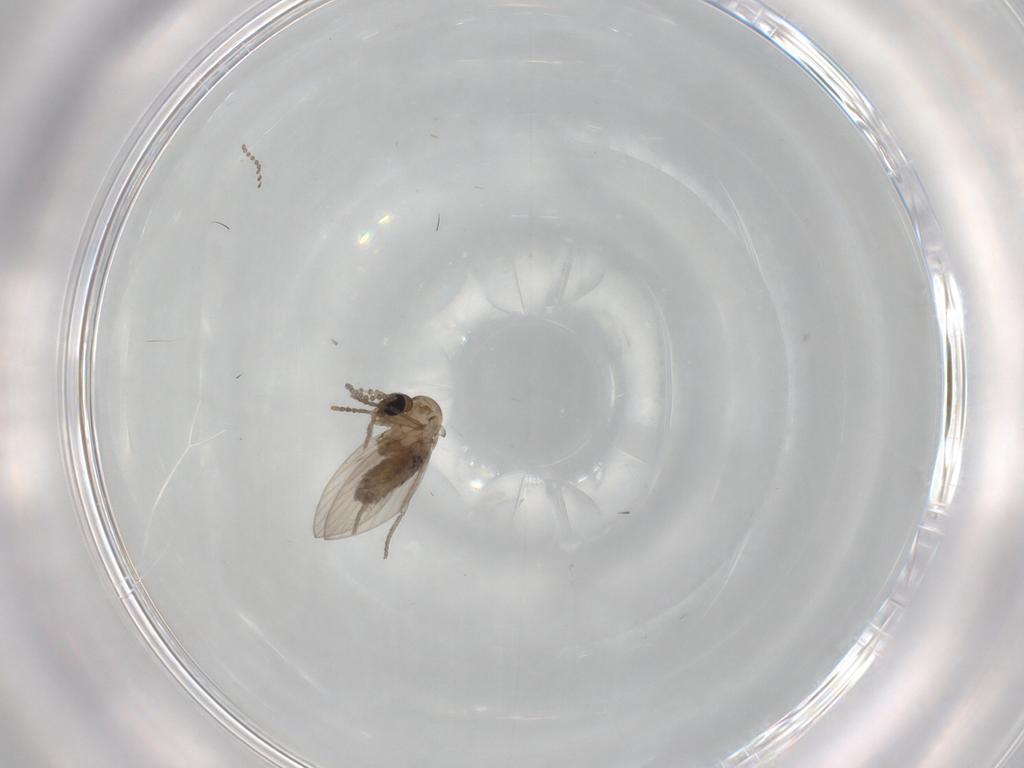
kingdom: Animalia
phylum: Arthropoda
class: Insecta
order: Diptera
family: Psychodidae
